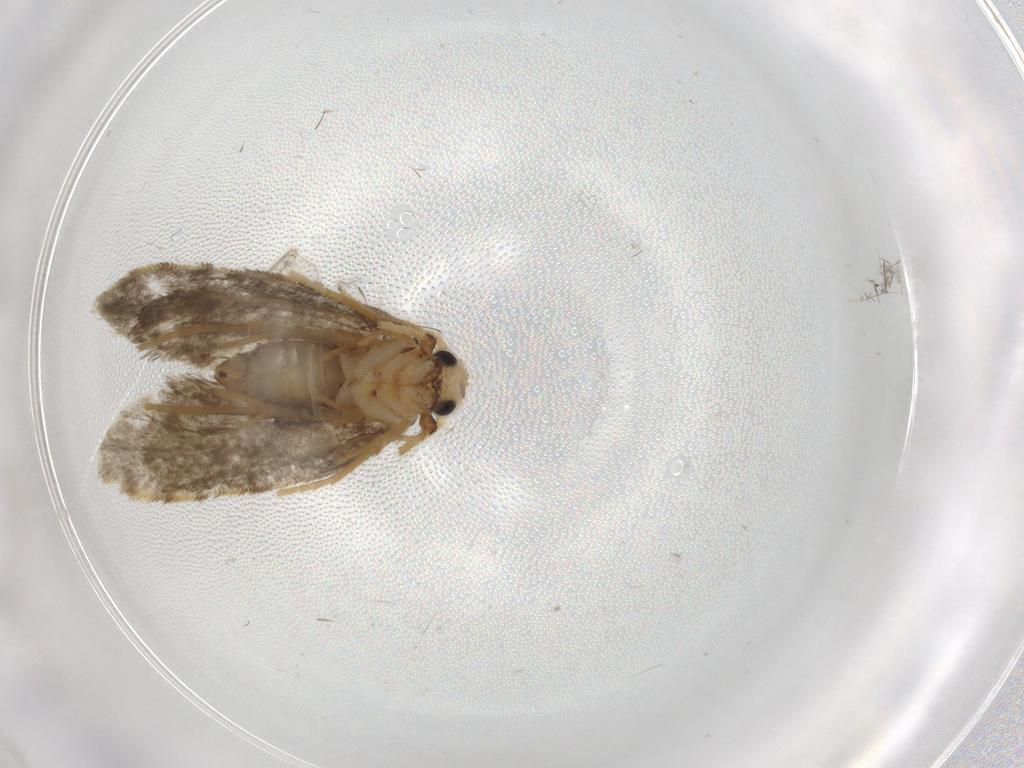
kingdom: Animalia
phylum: Arthropoda
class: Insecta
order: Lepidoptera
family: Psychidae
